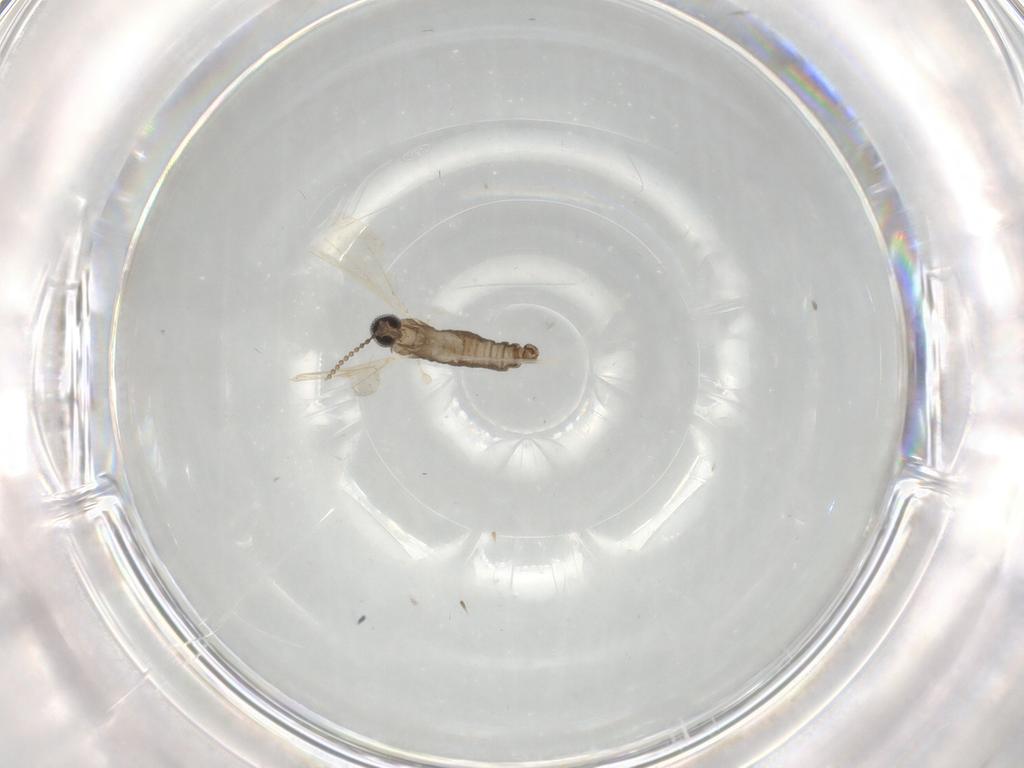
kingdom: Animalia
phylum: Arthropoda
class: Insecta
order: Diptera
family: Cecidomyiidae
